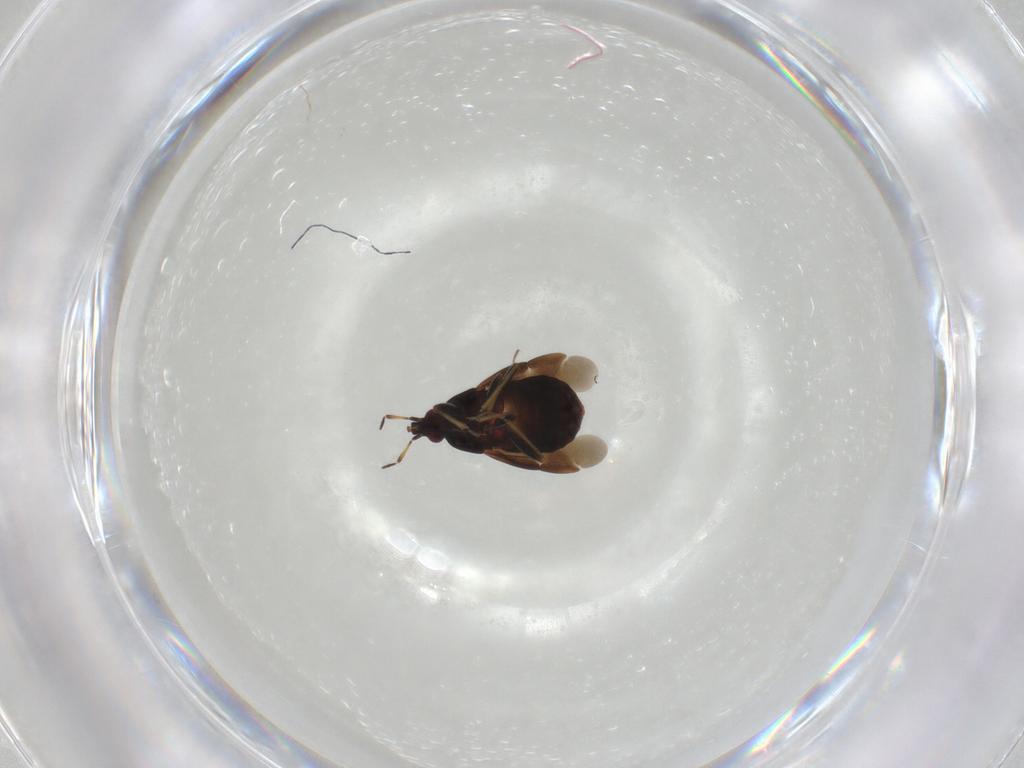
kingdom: Animalia
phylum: Arthropoda
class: Insecta
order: Hemiptera
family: Anthocoridae
